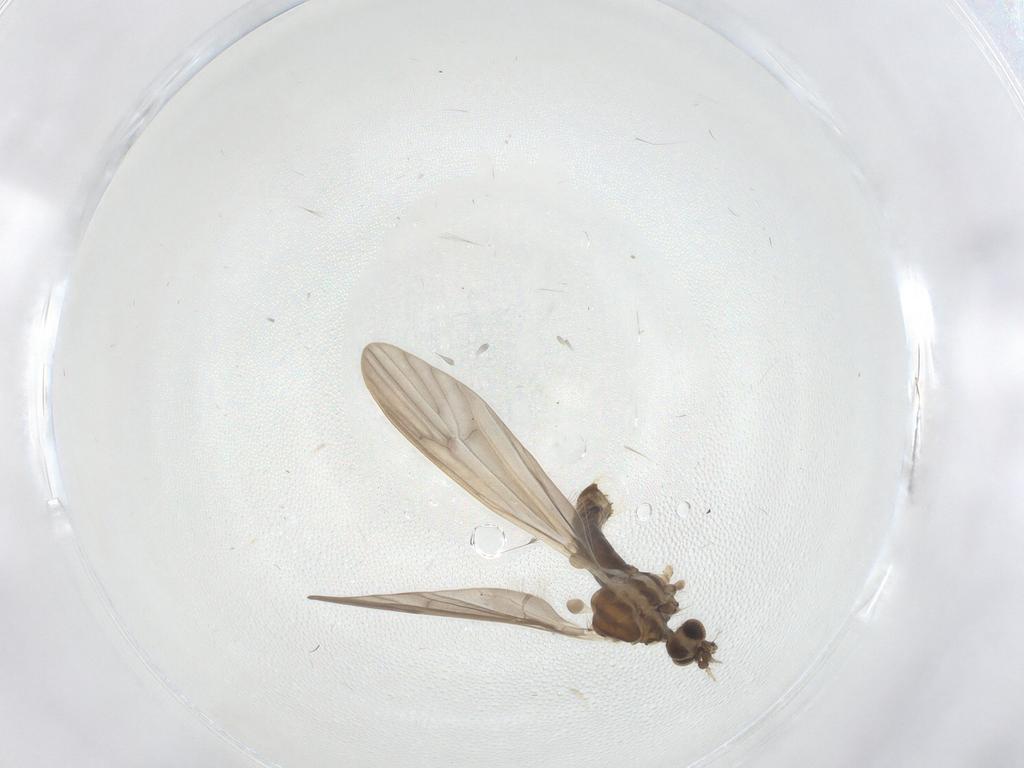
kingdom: Animalia
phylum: Arthropoda
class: Insecta
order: Diptera
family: Limoniidae
